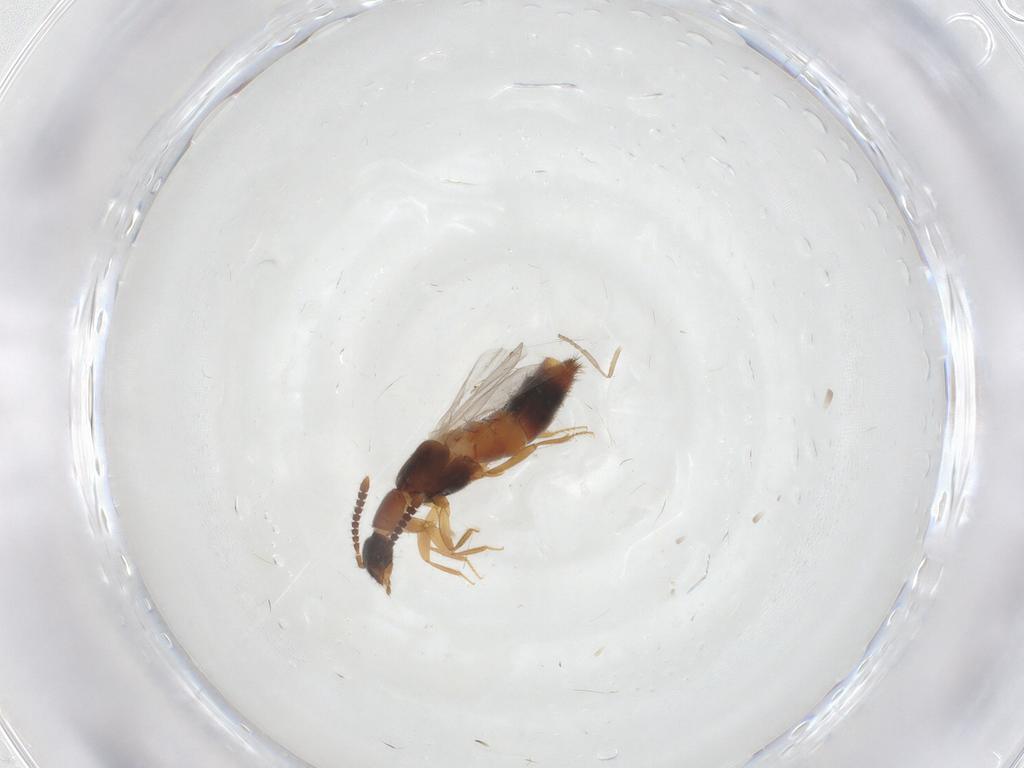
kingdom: Animalia
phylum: Arthropoda
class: Insecta
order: Coleoptera
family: Staphylinidae
